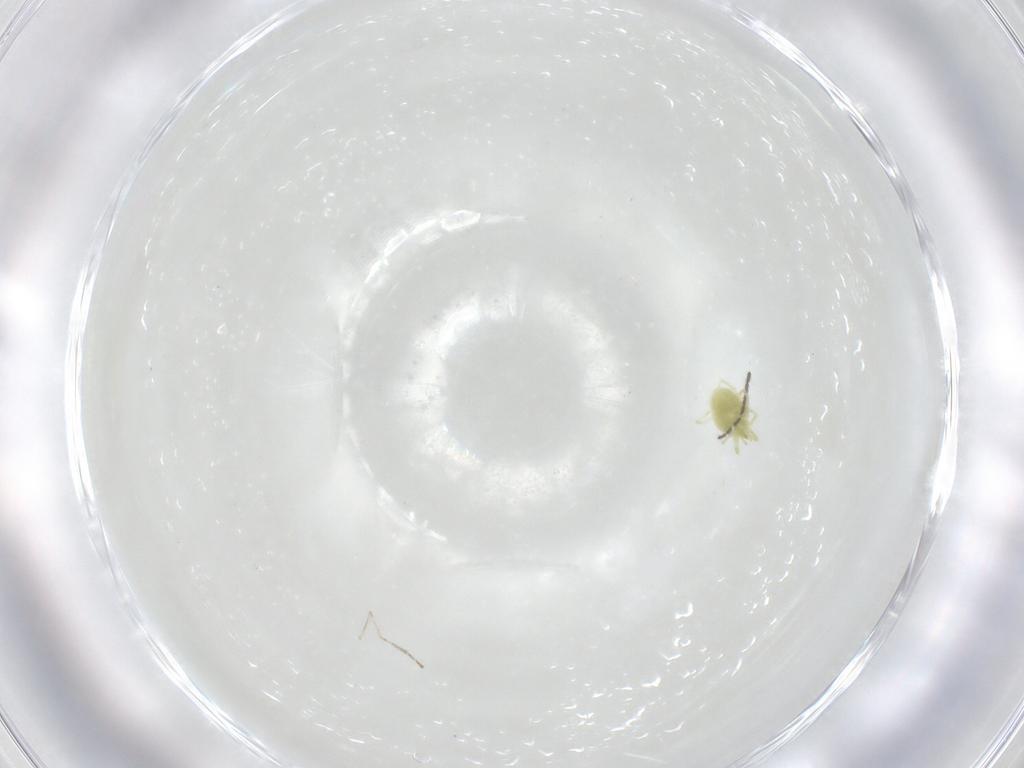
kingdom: Animalia
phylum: Arthropoda
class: Arachnida
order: Trombidiformes
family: Erythraeidae
